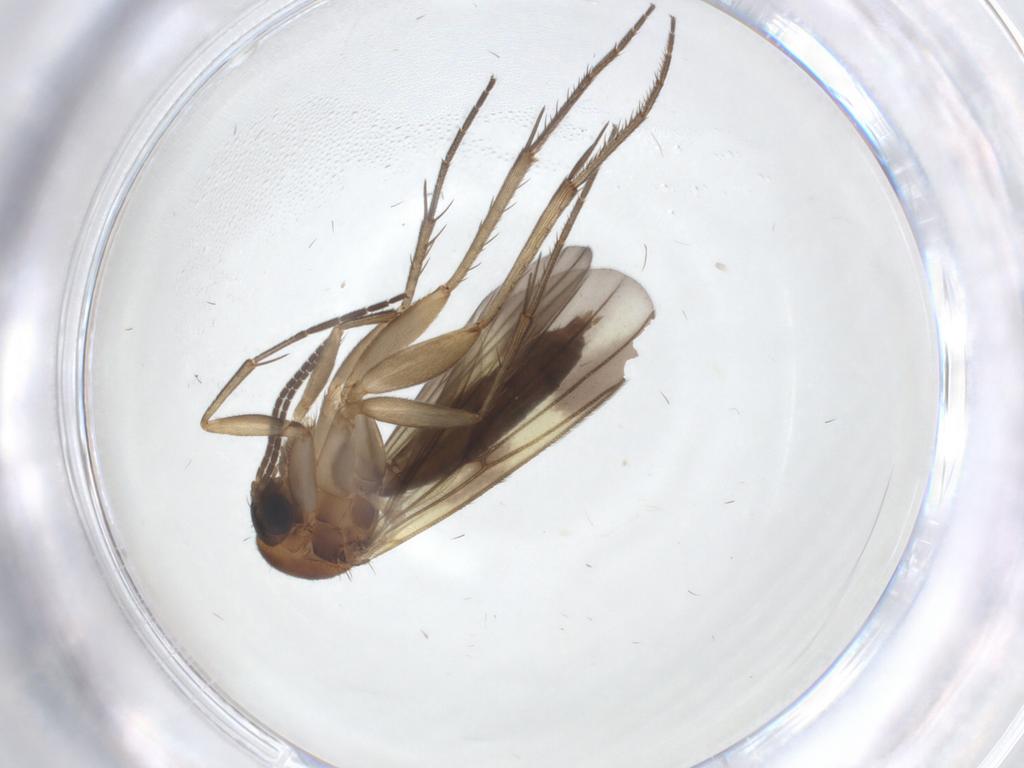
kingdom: Animalia
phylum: Arthropoda
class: Insecta
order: Diptera
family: Mycetophilidae
